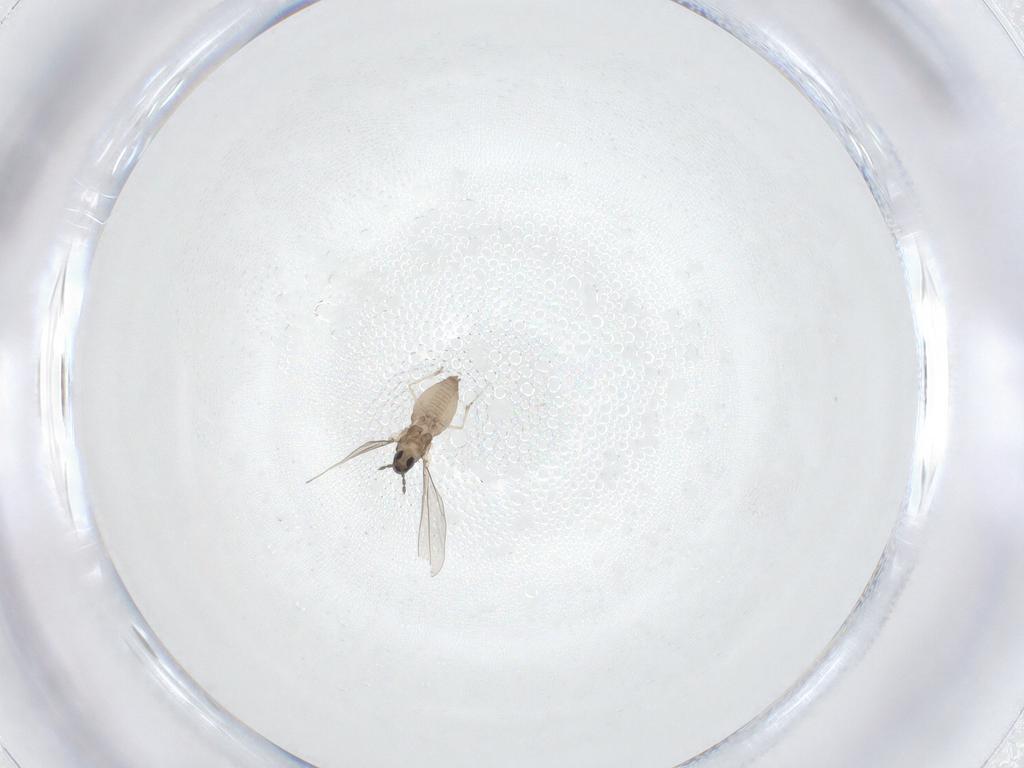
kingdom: Animalia
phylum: Arthropoda
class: Insecta
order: Diptera
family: Cecidomyiidae
